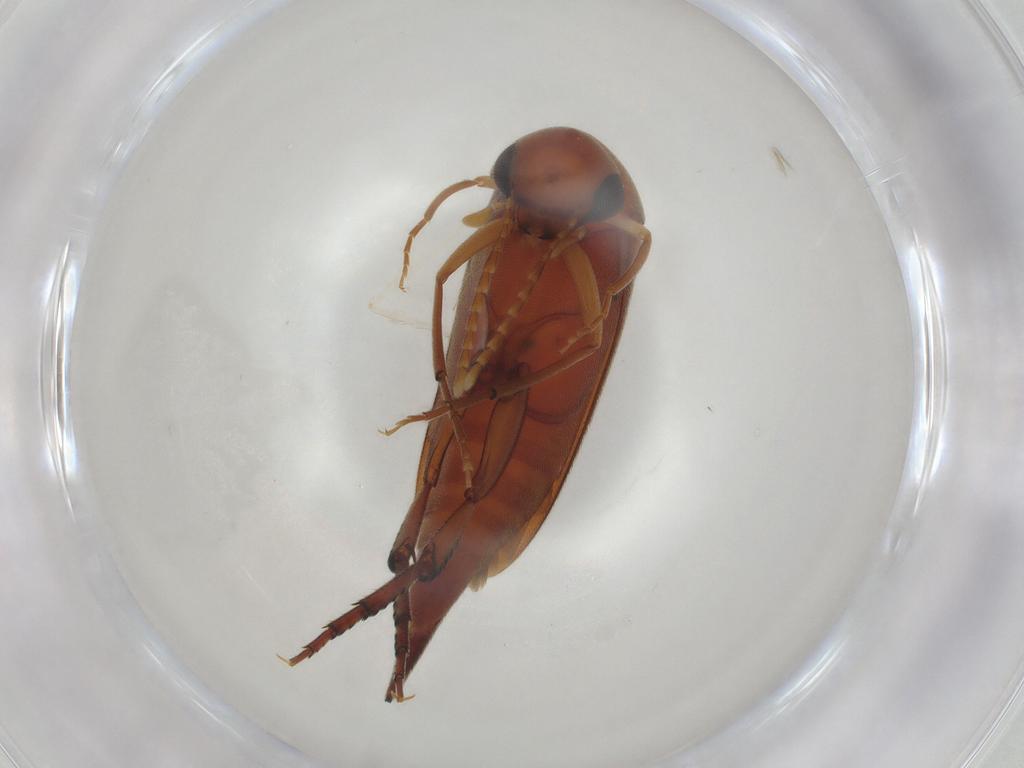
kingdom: Animalia
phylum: Arthropoda
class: Insecta
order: Coleoptera
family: Mordellidae
